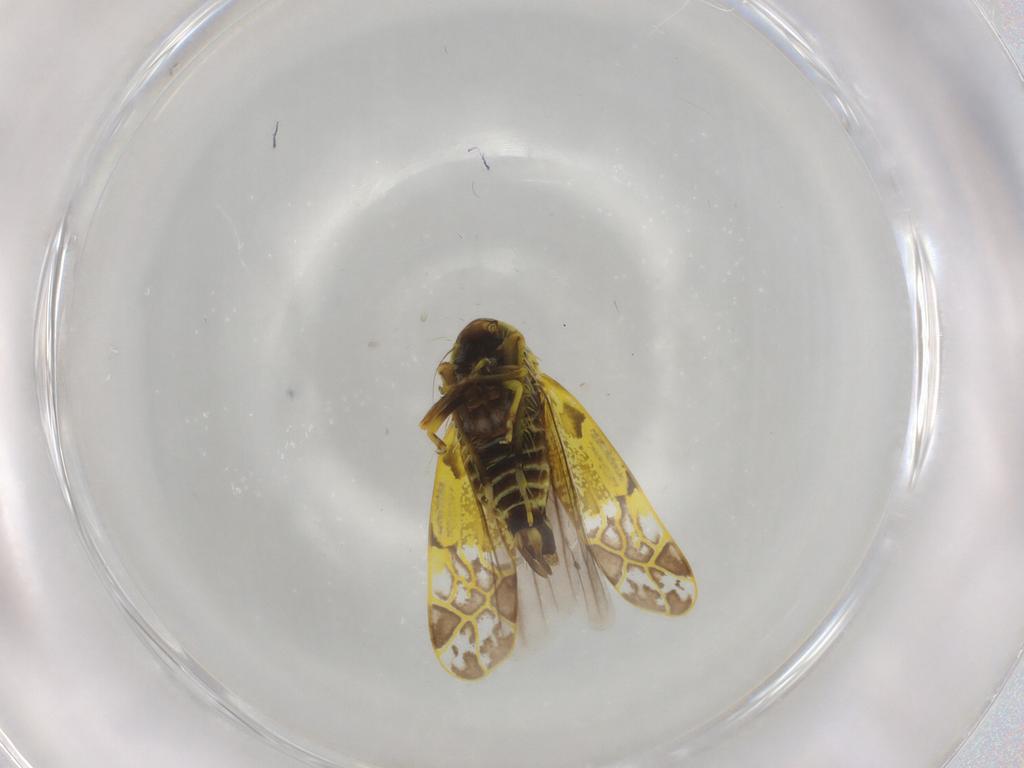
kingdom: Animalia
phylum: Arthropoda
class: Insecta
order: Hemiptera
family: Cicadellidae
